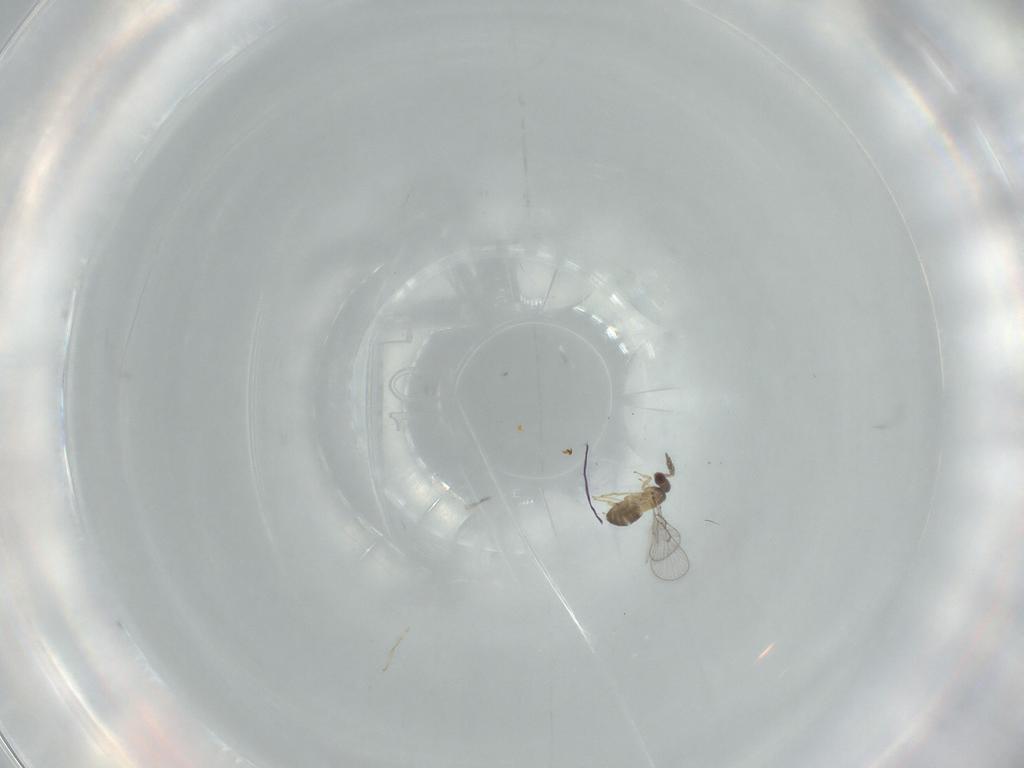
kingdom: Animalia
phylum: Arthropoda
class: Insecta
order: Hymenoptera
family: Trichogrammatidae
